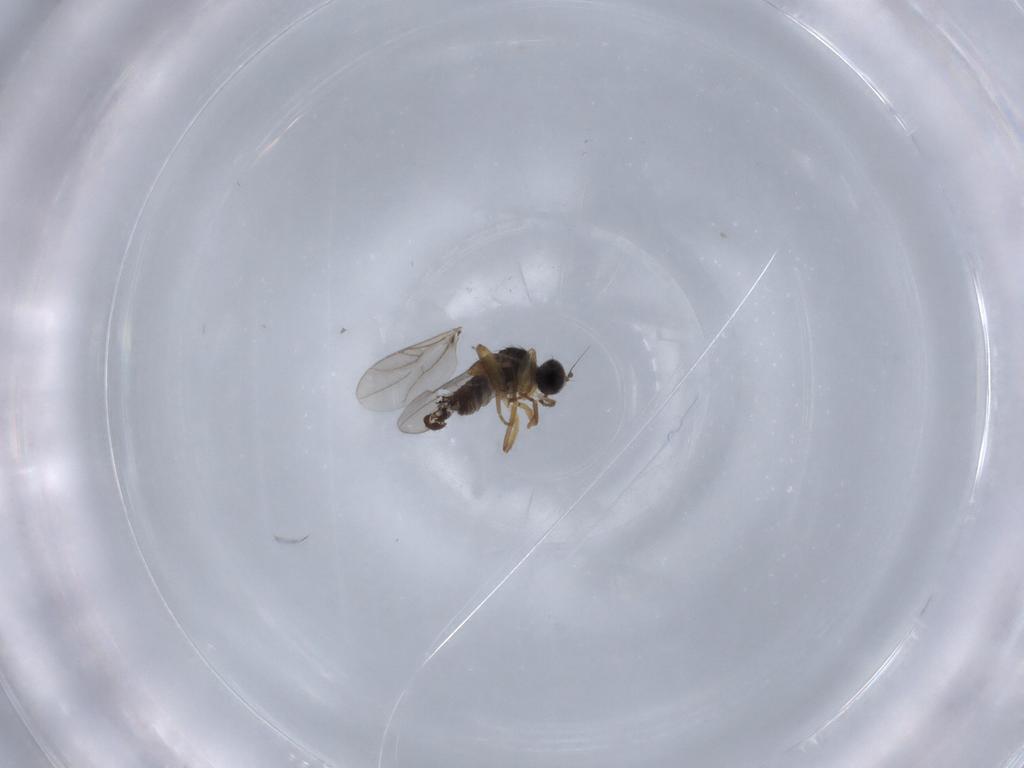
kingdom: Animalia
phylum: Arthropoda
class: Insecta
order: Diptera
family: Hybotidae
